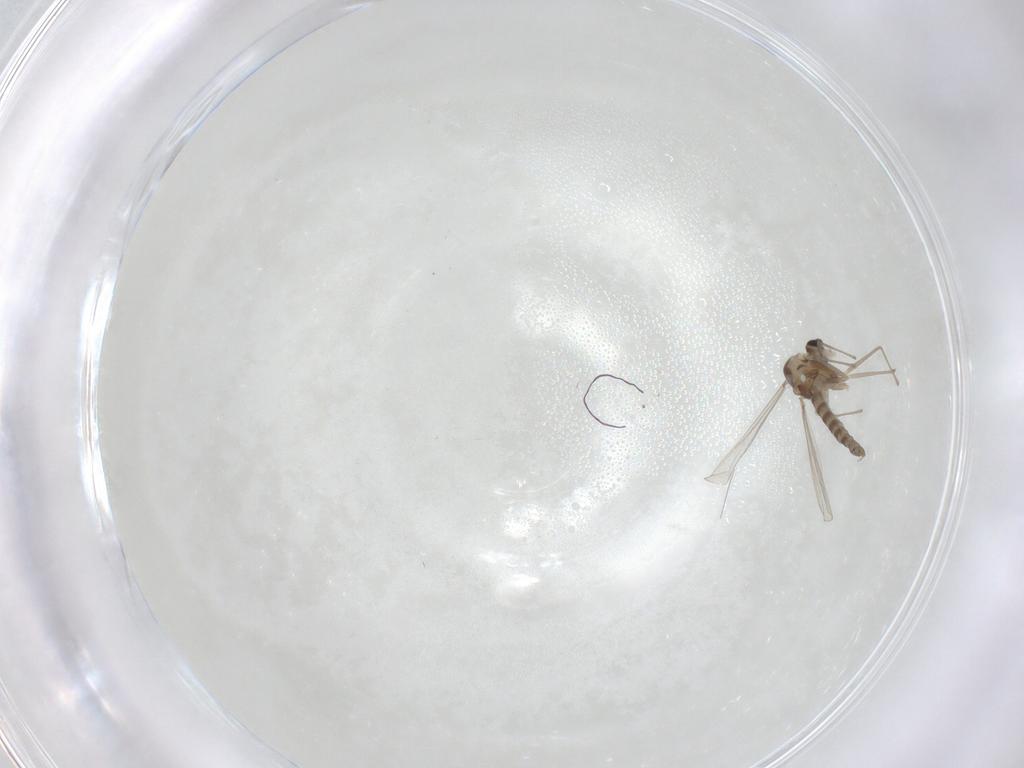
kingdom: Animalia
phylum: Arthropoda
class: Insecta
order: Diptera
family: Chironomidae
